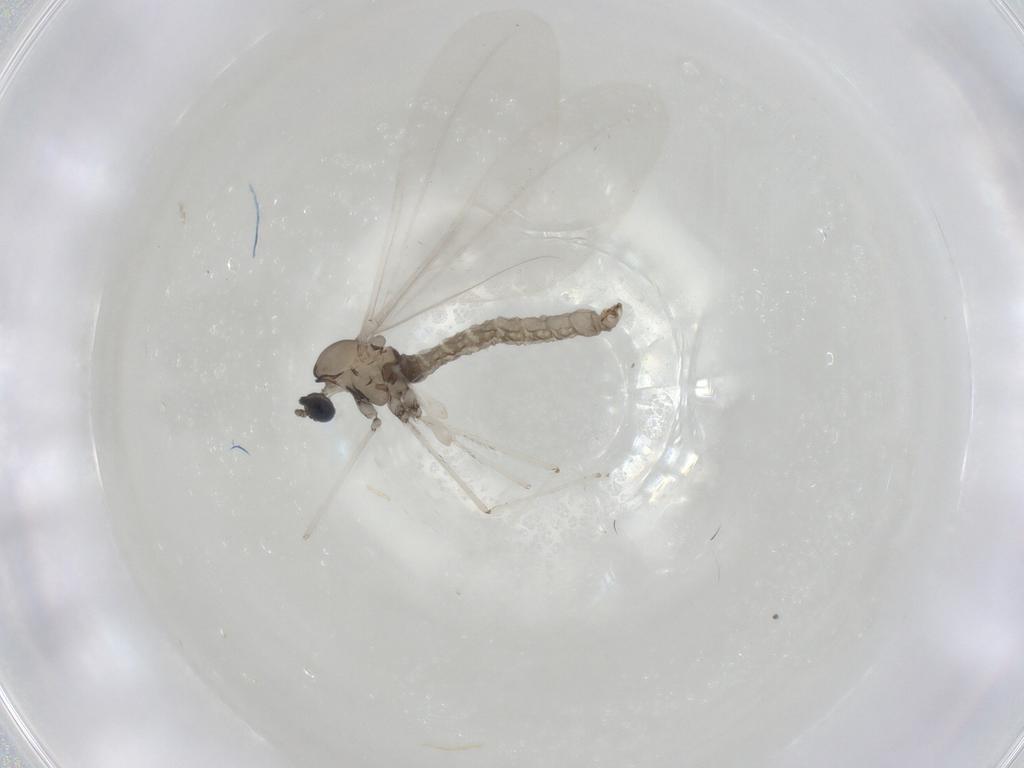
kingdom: Animalia
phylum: Arthropoda
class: Insecta
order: Diptera
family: Cecidomyiidae
